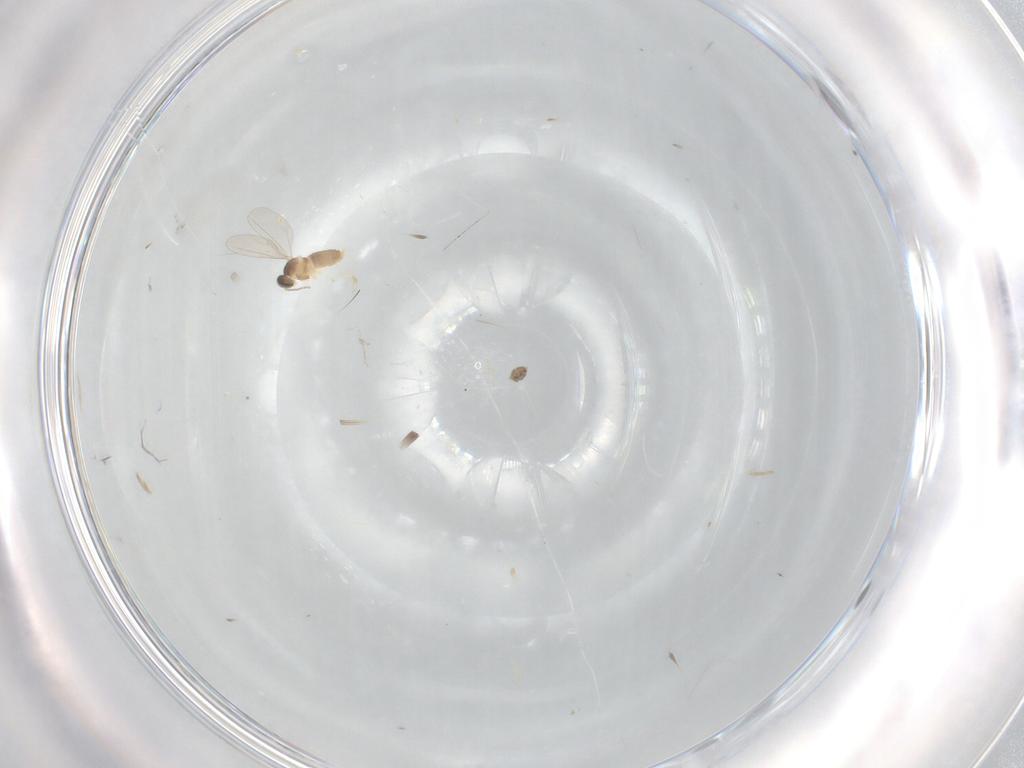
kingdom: Animalia
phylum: Arthropoda
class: Insecta
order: Diptera
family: Cecidomyiidae
